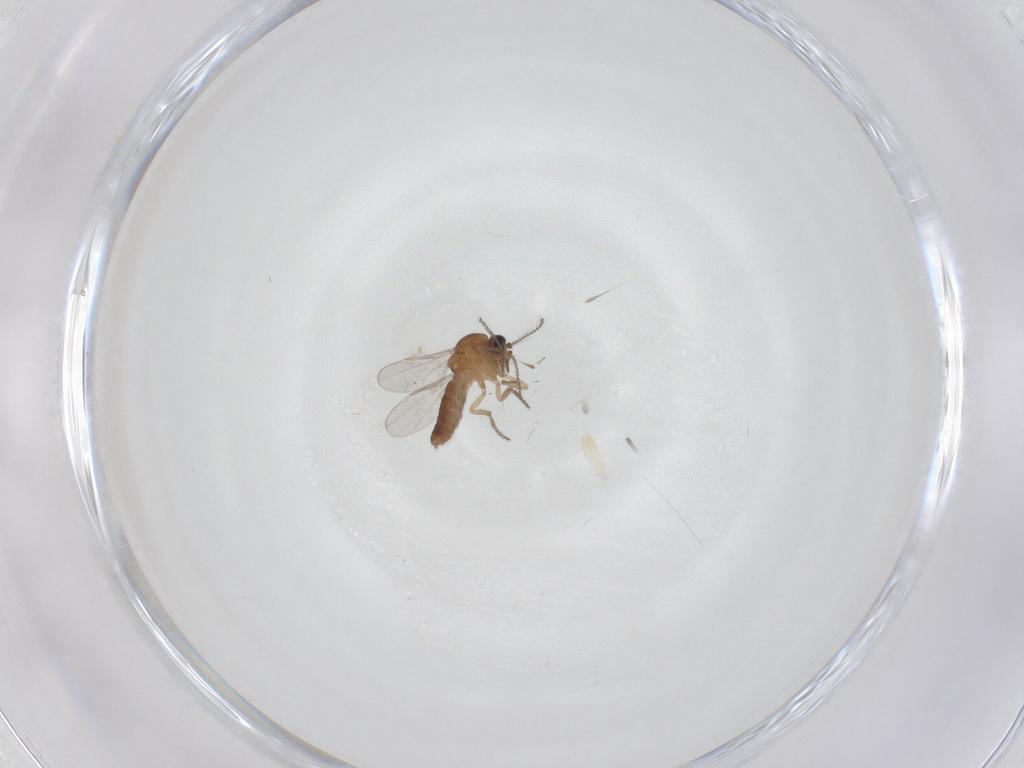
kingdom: Animalia
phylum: Arthropoda
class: Insecta
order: Diptera
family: Ceratopogonidae
